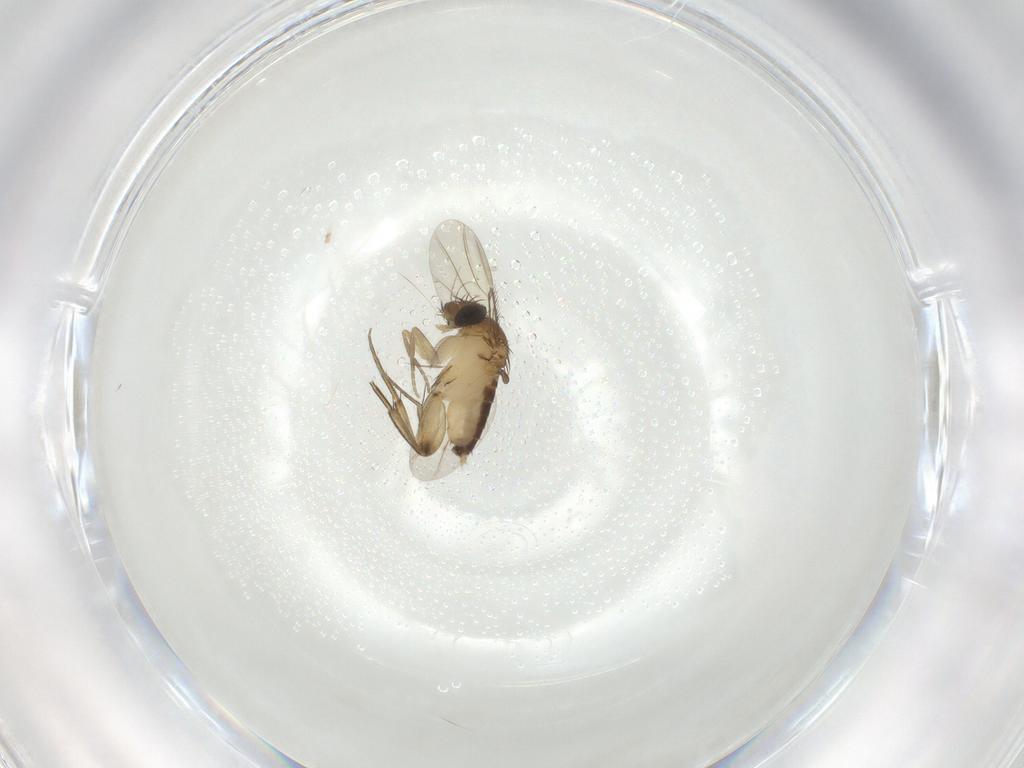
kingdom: Animalia
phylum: Arthropoda
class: Insecta
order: Diptera
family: Phoridae
